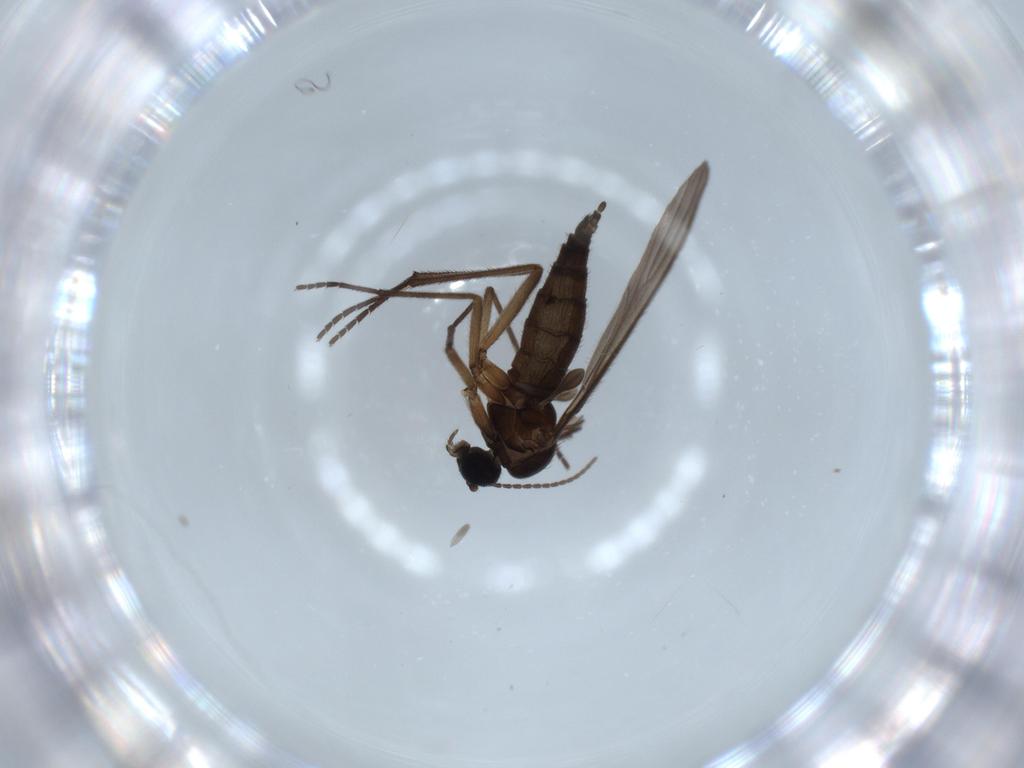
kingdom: Animalia
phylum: Arthropoda
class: Insecta
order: Diptera
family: Sciaridae
